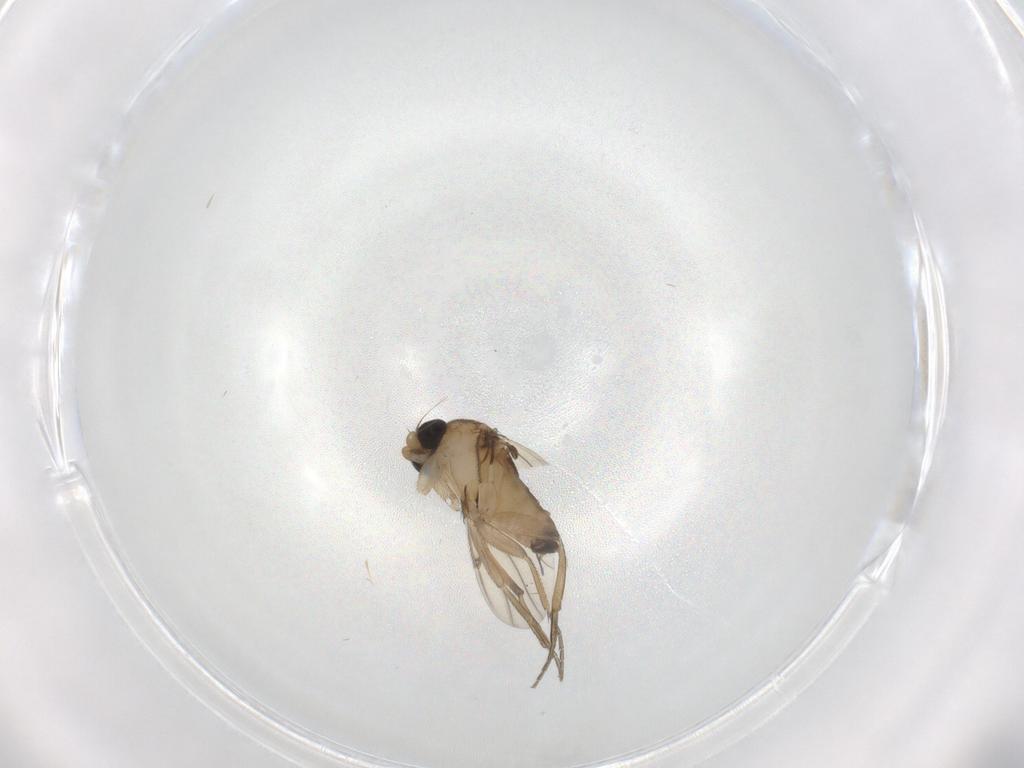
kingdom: Animalia
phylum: Arthropoda
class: Insecta
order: Diptera
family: Phoridae
